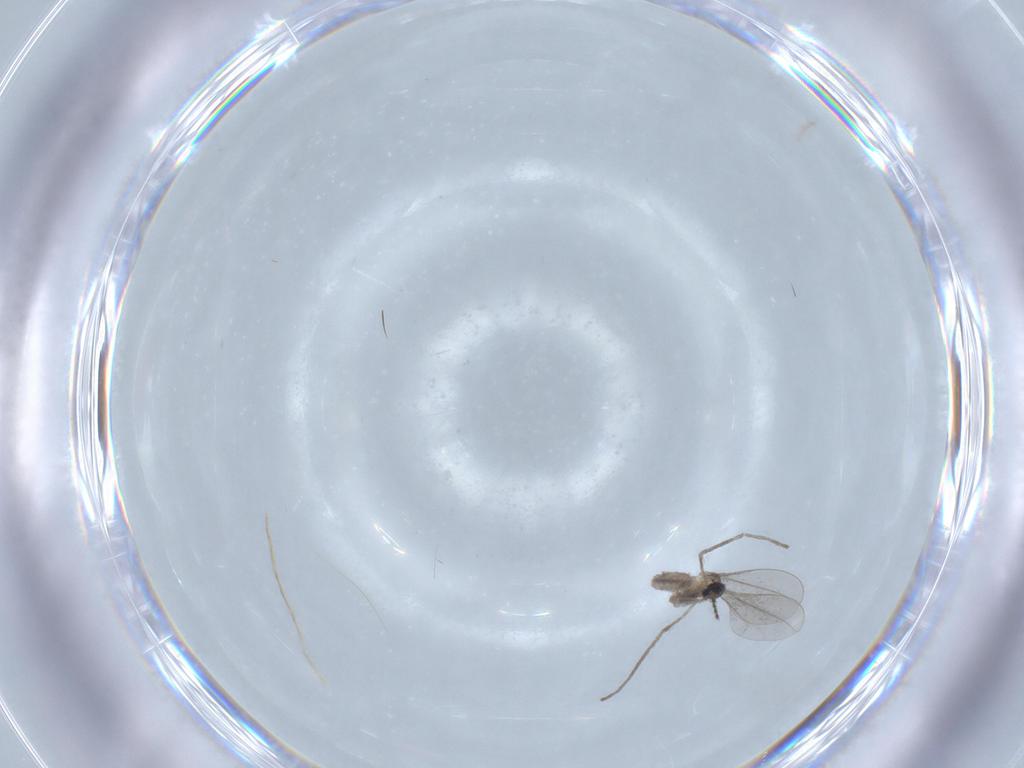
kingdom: Animalia
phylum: Arthropoda
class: Insecta
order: Diptera
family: Cecidomyiidae
